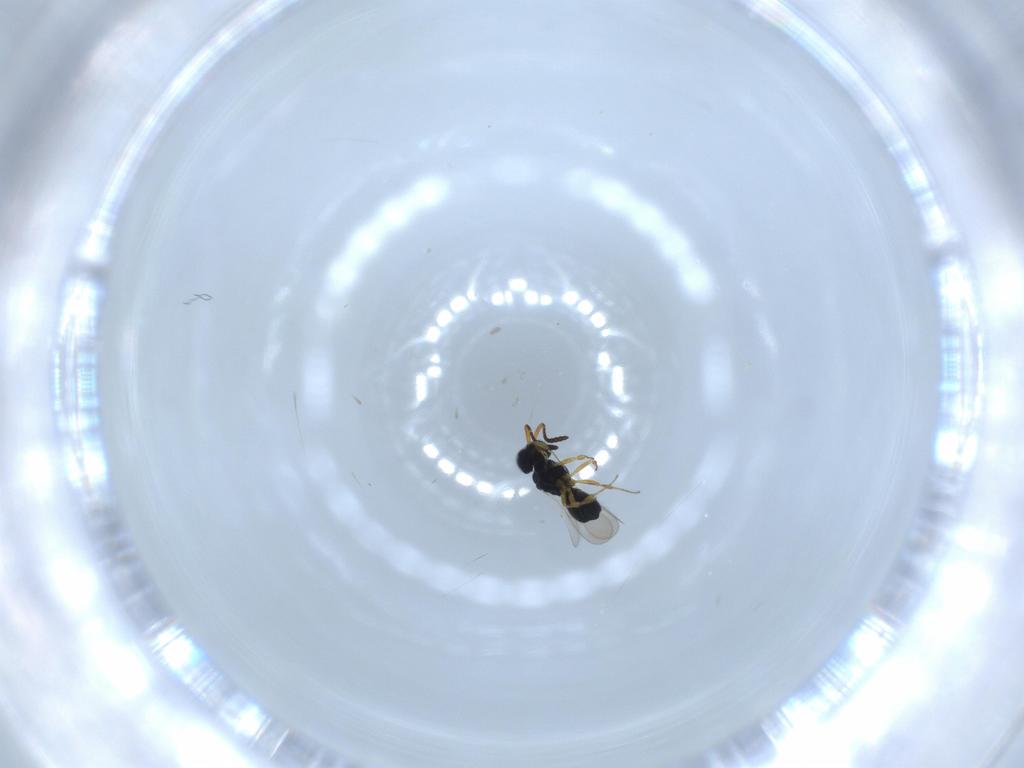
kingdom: Animalia
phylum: Arthropoda
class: Insecta
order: Hymenoptera
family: Scelionidae
